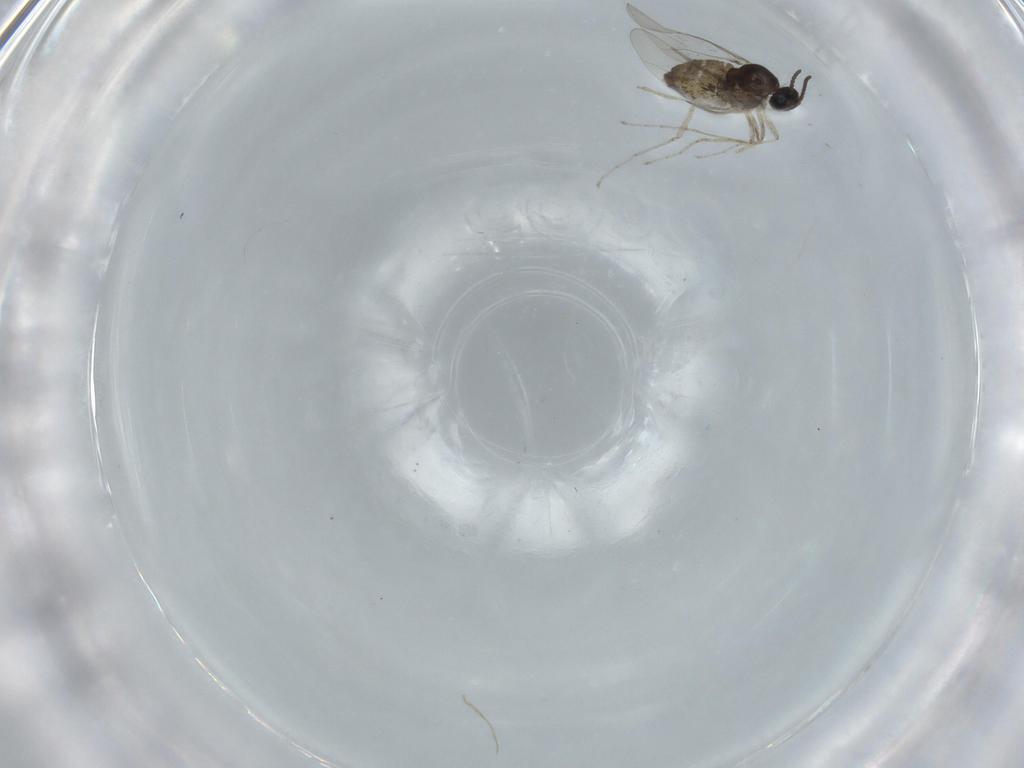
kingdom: Animalia
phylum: Arthropoda
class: Insecta
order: Diptera
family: Cecidomyiidae
